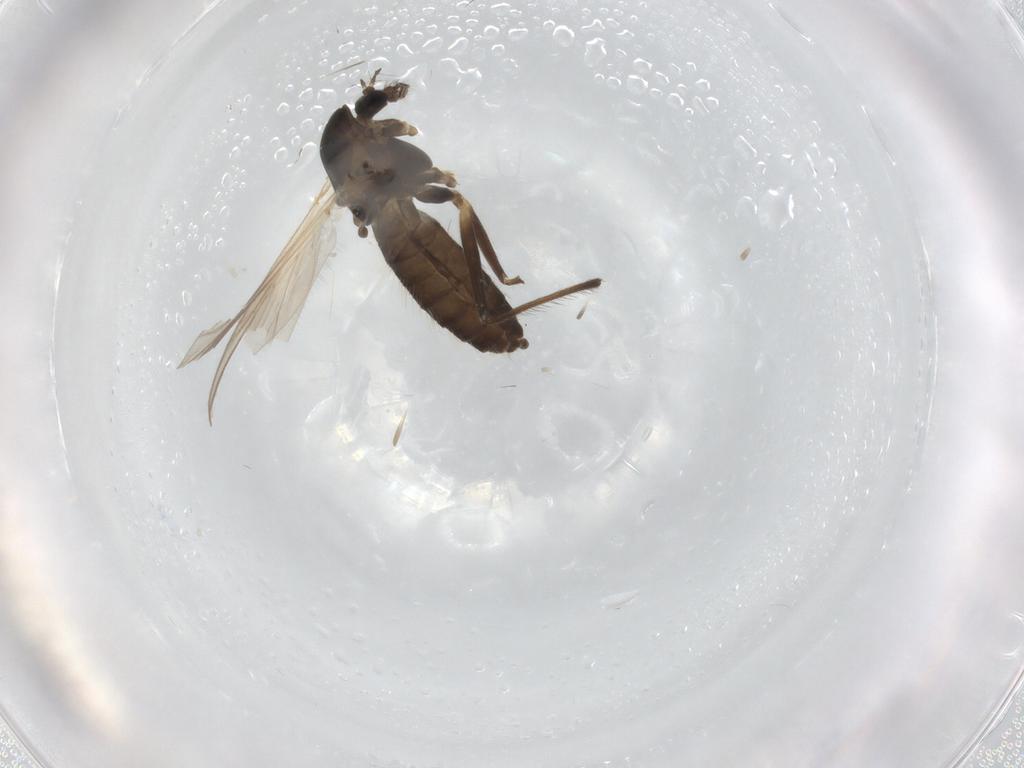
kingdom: Animalia
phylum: Arthropoda
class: Insecta
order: Diptera
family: Chironomidae
